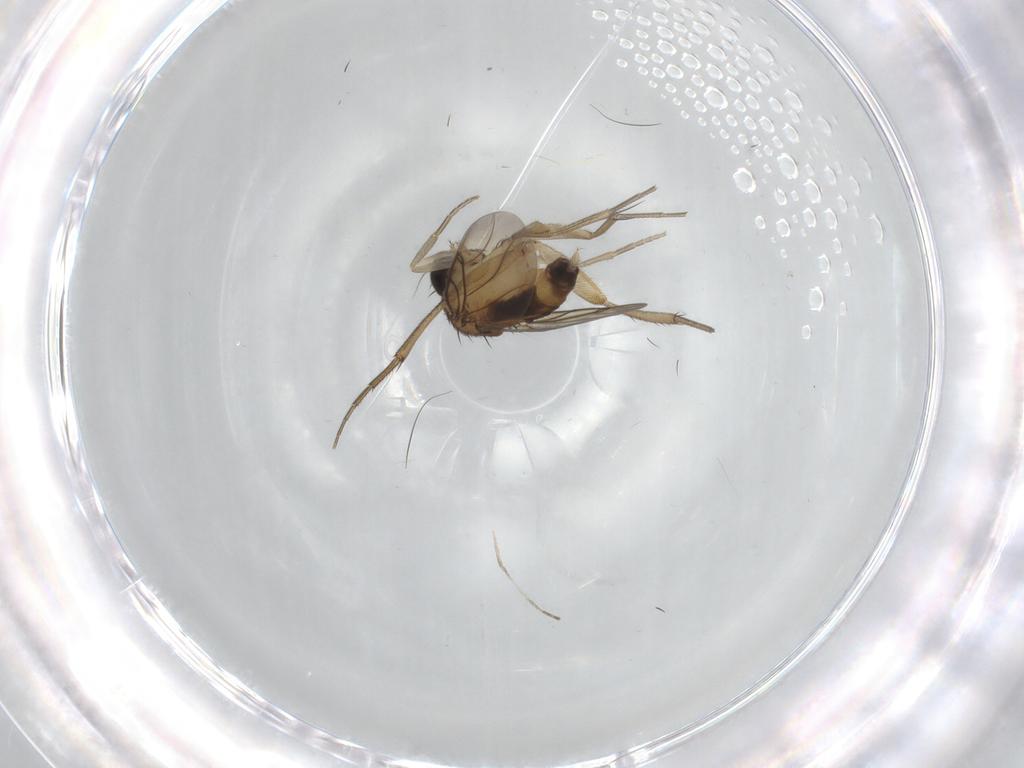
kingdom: Animalia
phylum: Arthropoda
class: Insecta
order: Diptera
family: Phoridae
